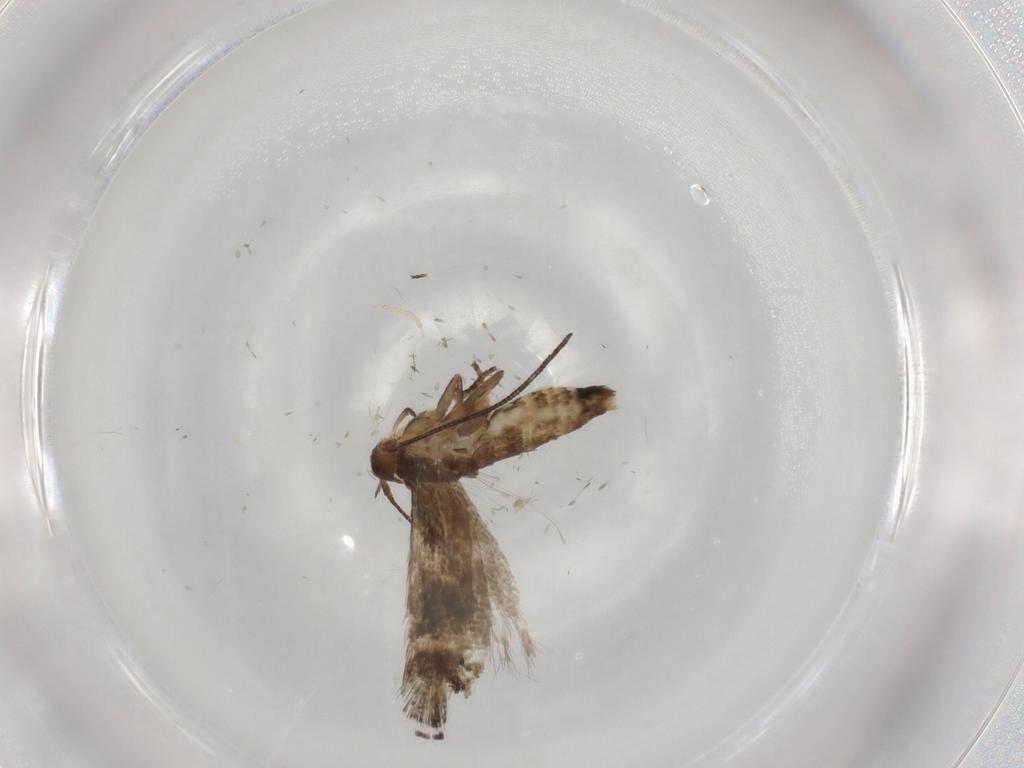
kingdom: Animalia
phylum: Arthropoda
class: Insecta
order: Lepidoptera
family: Momphidae
